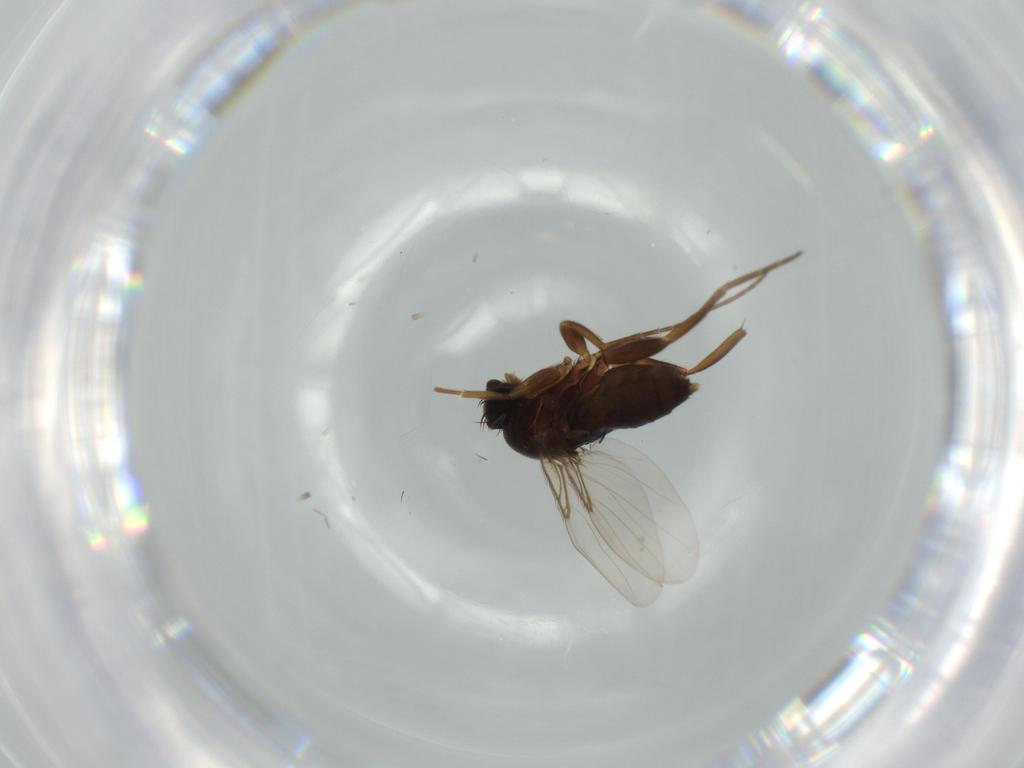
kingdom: Animalia
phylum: Arthropoda
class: Insecta
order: Diptera
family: Phoridae
